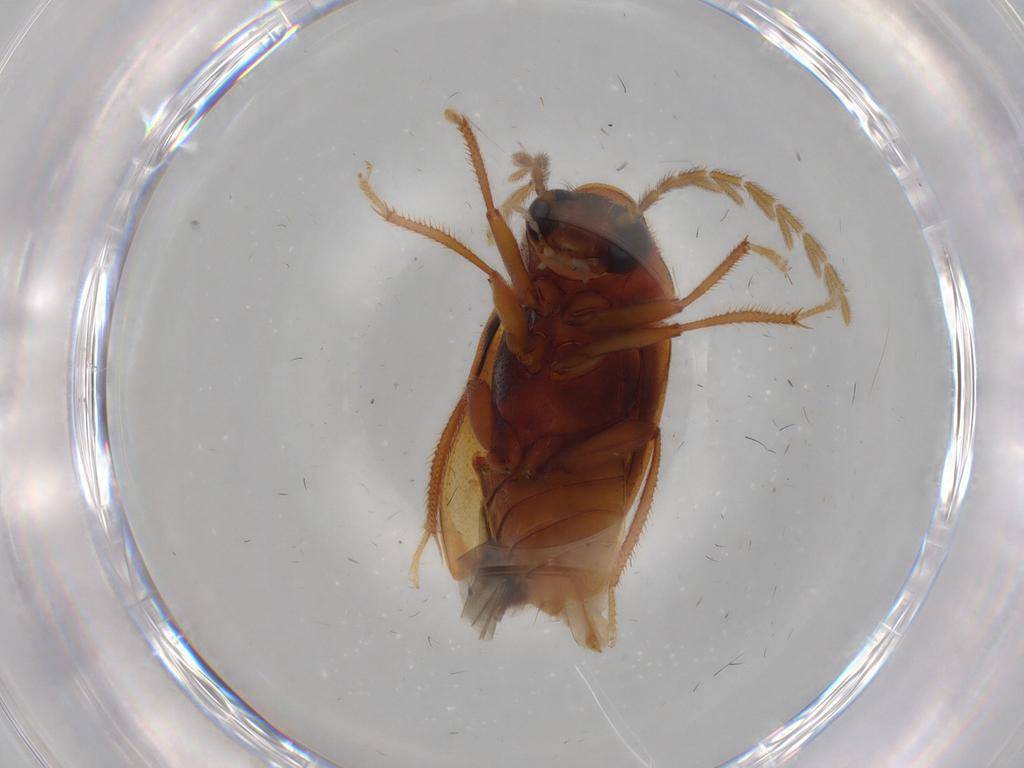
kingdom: Animalia
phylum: Arthropoda
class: Insecta
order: Coleoptera
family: Ptilodactylidae
